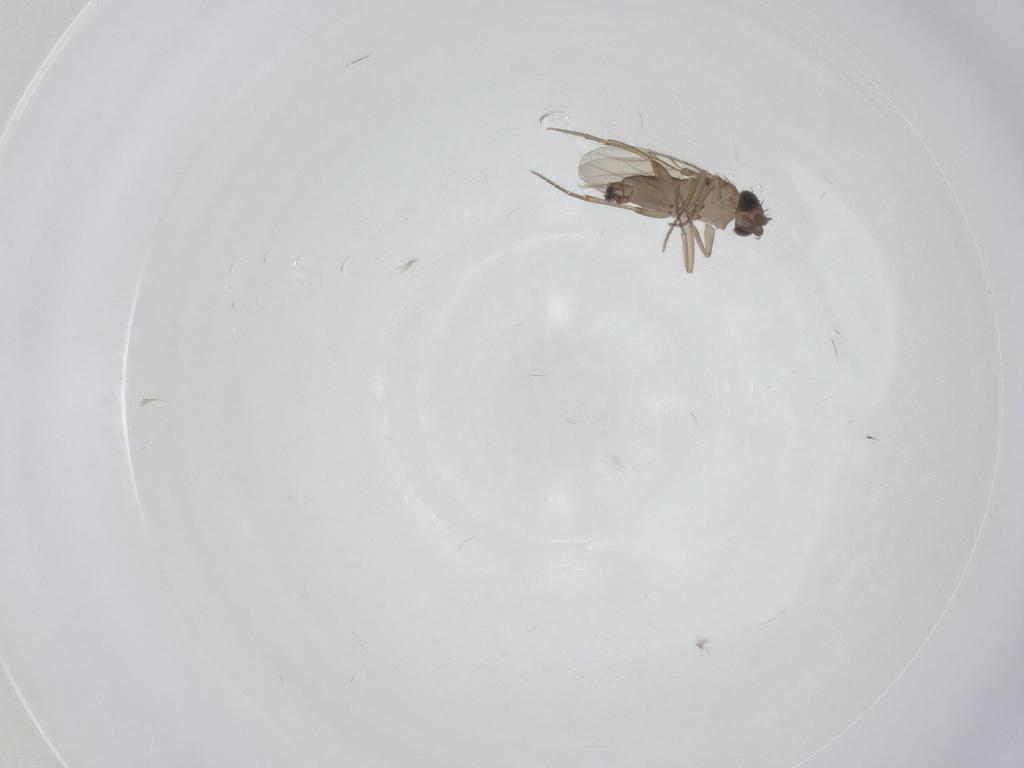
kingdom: Animalia
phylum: Arthropoda
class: Insecta
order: Diptera
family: Psychodidae
